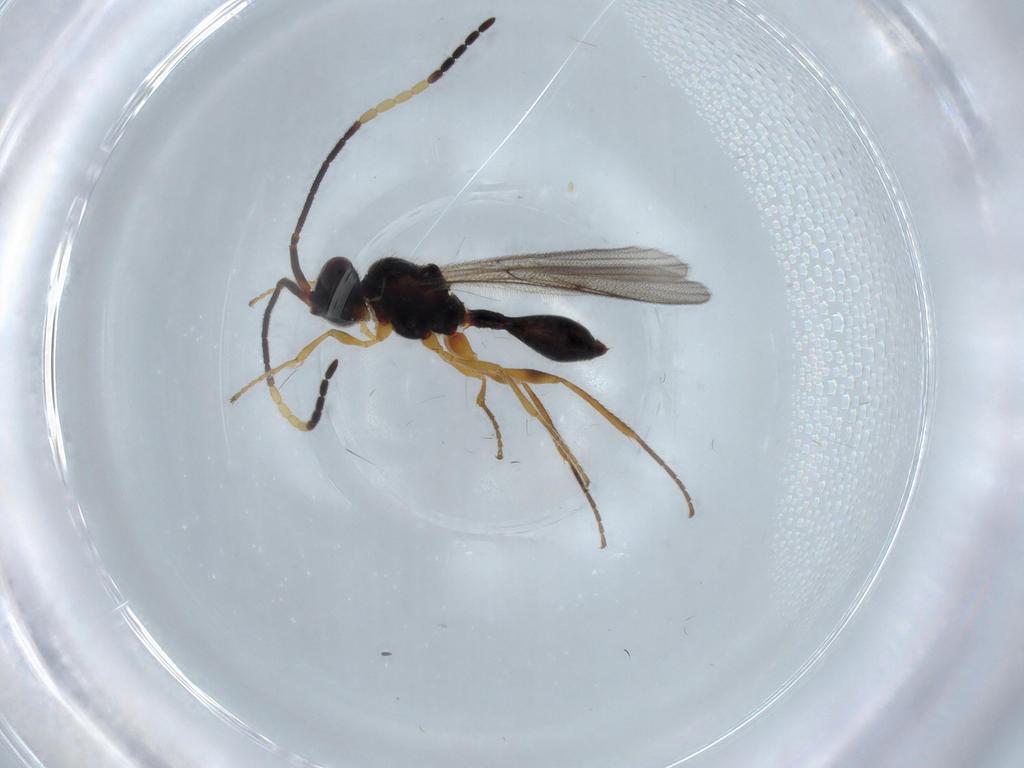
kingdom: Animalia
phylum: Arthropoda
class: Insecta
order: Hymenoptera
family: Diapriidae
